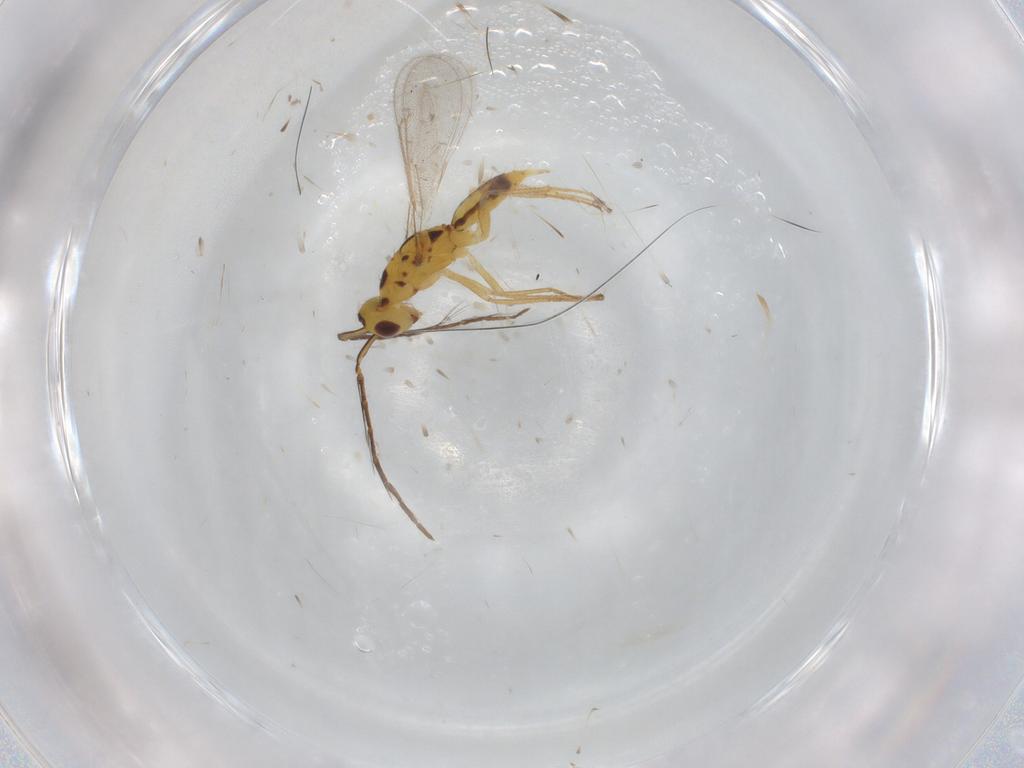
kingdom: Animalia
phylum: Arthropoda
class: Insecta
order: Hymenoptera
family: Eulophidae
